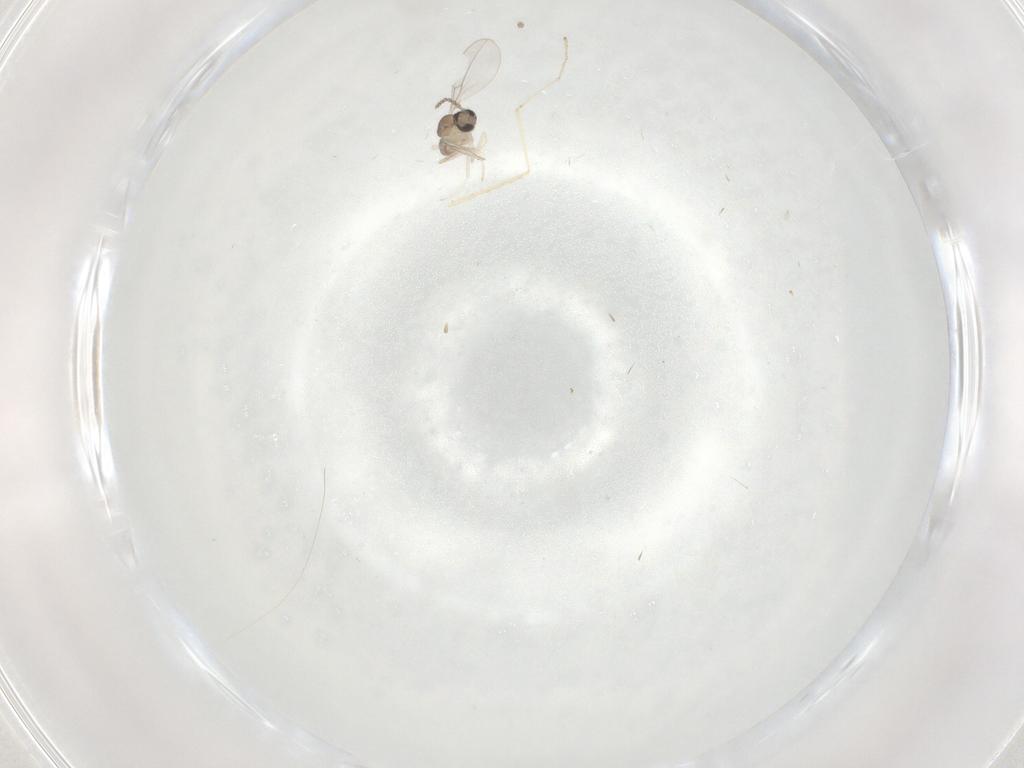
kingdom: Animalia
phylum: Arthropoda
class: Insecta
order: Diptera
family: Cecidomyiidae
